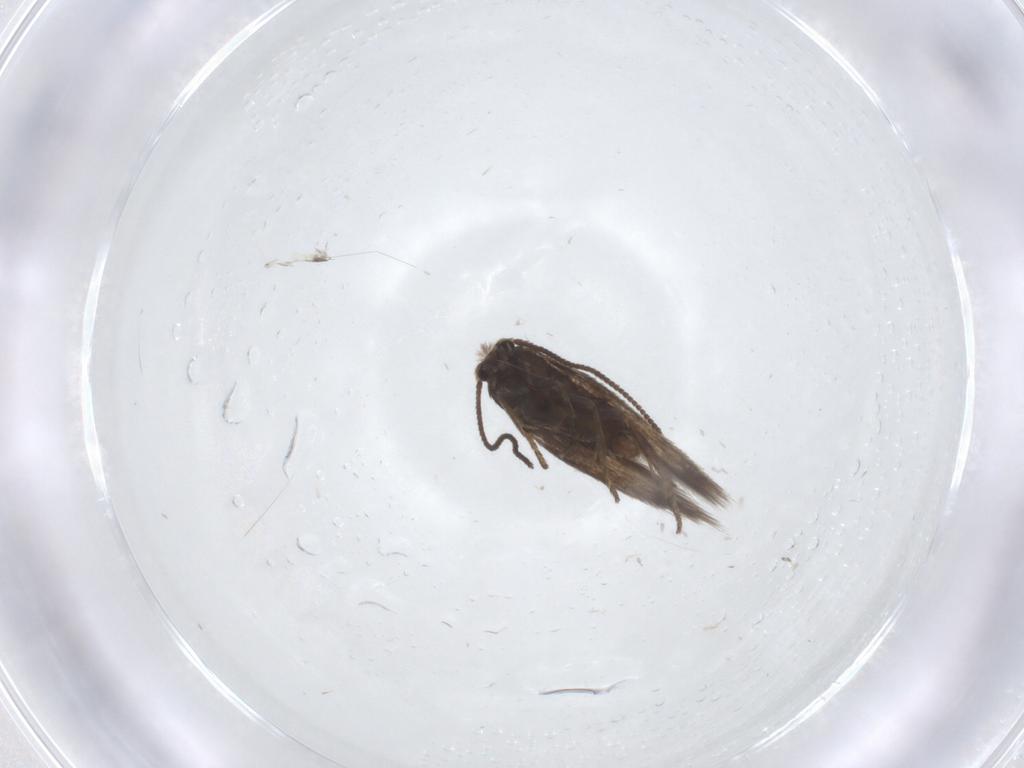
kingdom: Animalia
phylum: Arthropoda
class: Insecta
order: Lepidoptera
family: Nepticulidae
